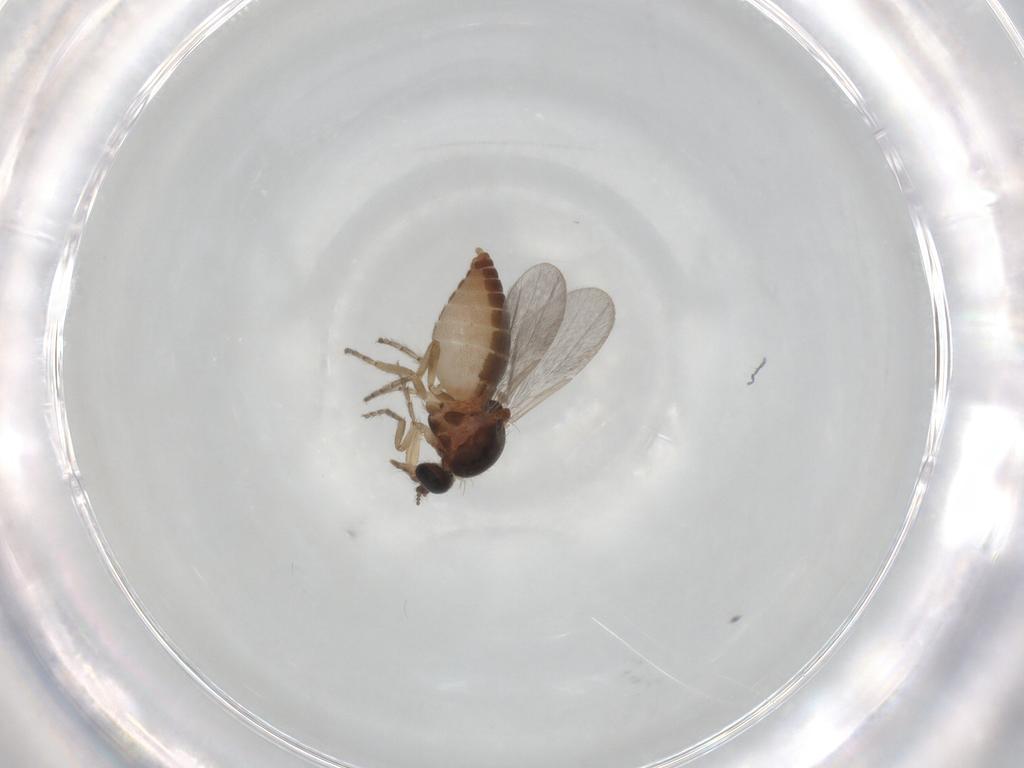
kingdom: Animalia
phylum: Arthropoda
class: Insecta
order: Diptera
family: Ceratopogonidae
